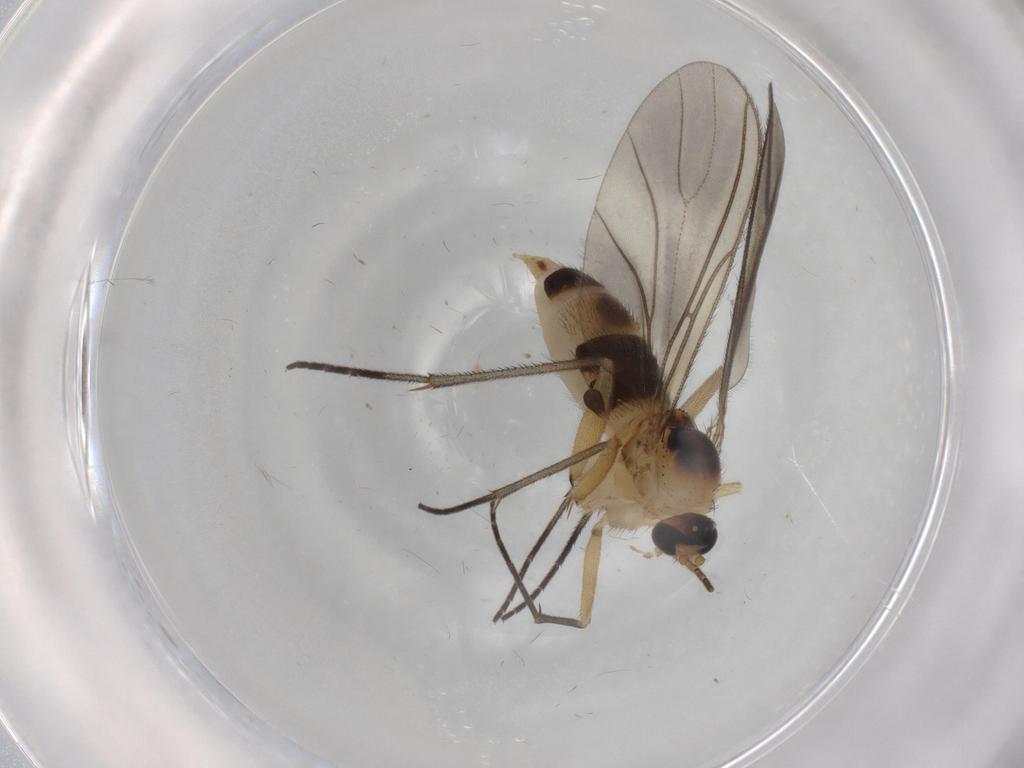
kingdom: Animalia
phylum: Arthropoda
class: Insecta
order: Diptera
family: Sciaridae
